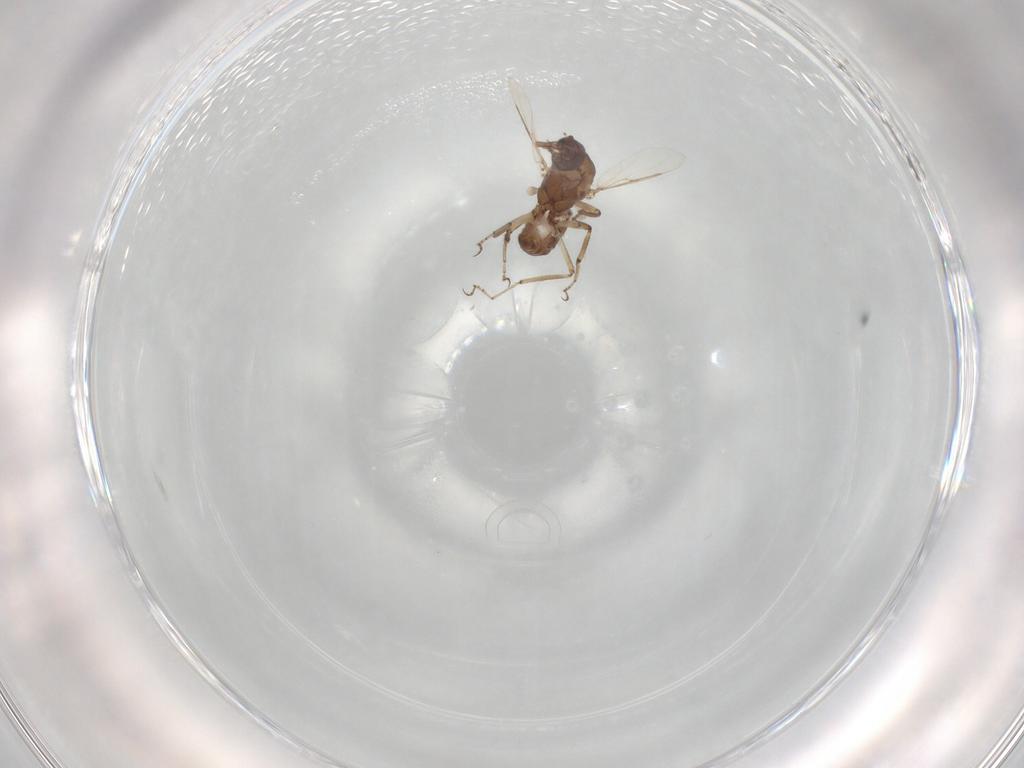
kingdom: Animalia
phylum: Arthropoda
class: Insecta
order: Diptera
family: Ceratopogonidae
